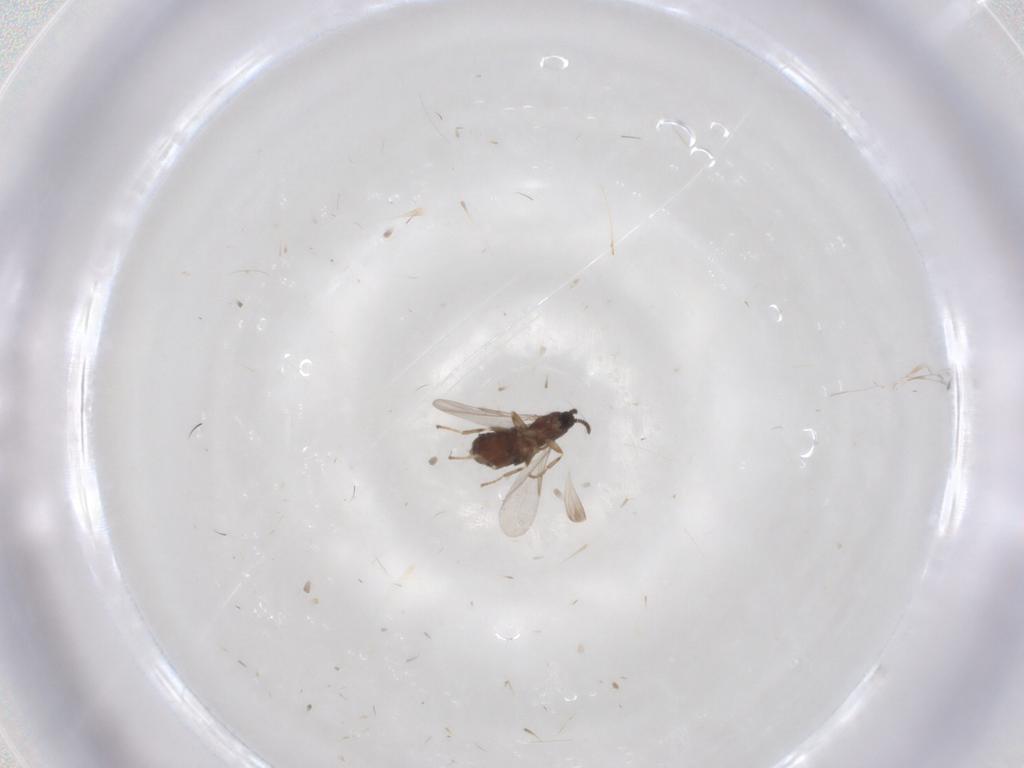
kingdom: Animalia
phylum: Arthropoda
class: Insecta
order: Diptera
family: Scatopsidae
